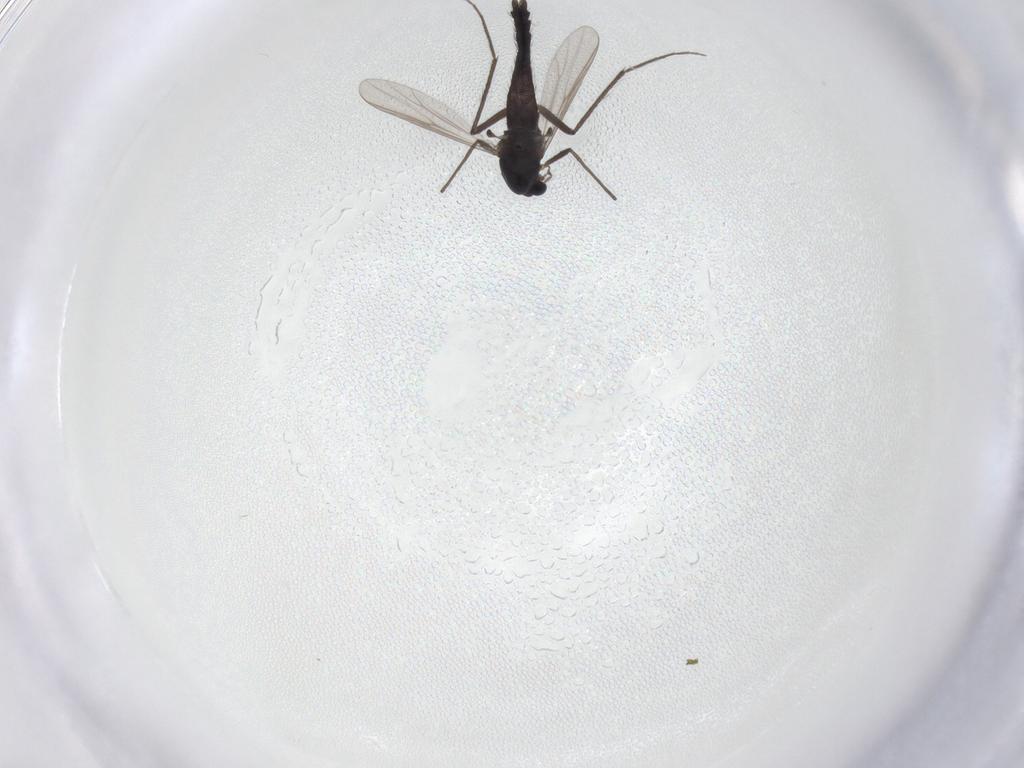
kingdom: Animalia
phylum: Arthropoda
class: Insecta
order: Diptera
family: Chironomidae
